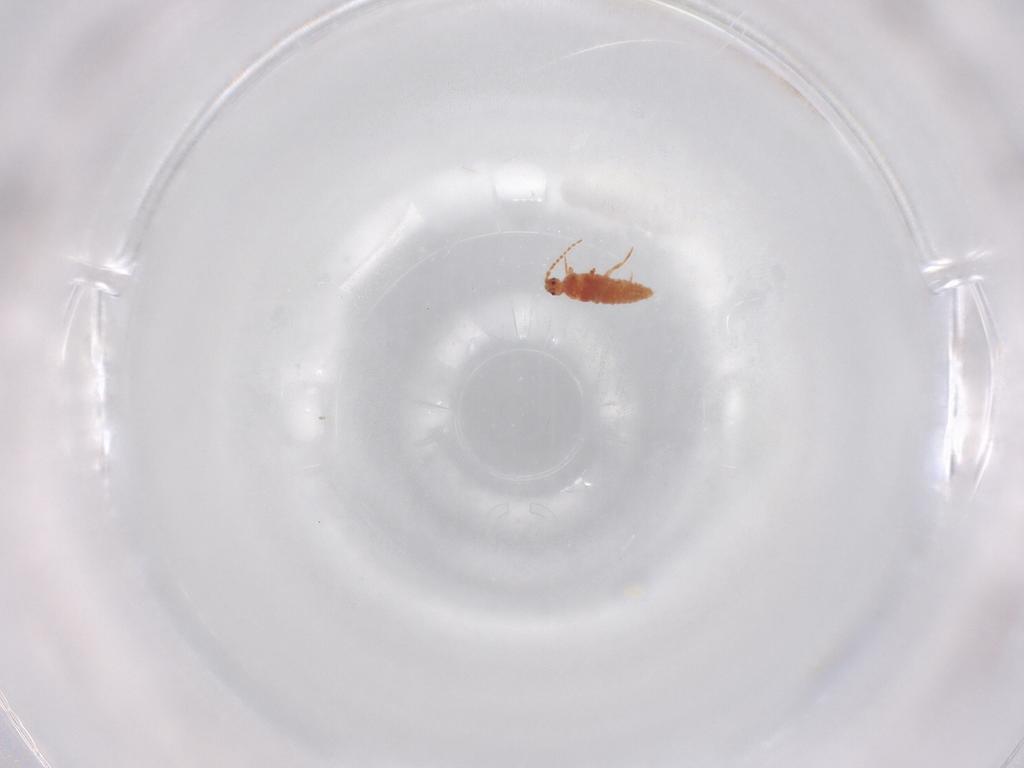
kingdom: Animalia
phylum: Arthropoda
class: Insecta
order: Hemiptera
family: Pseudococcidae
